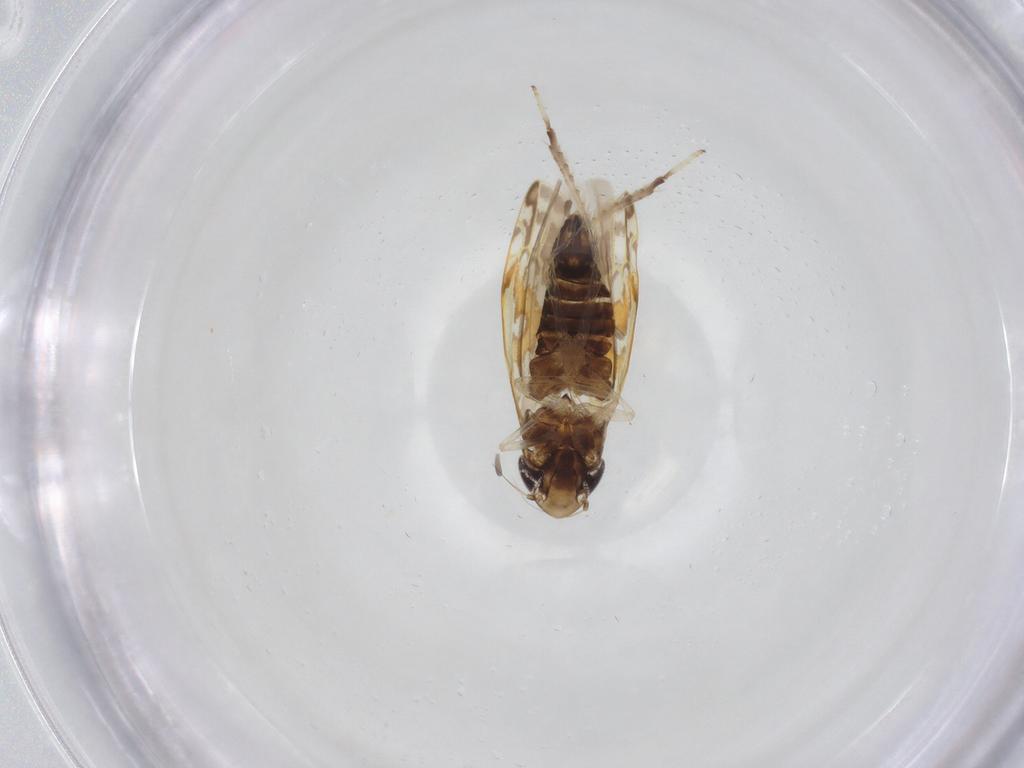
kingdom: Animalia
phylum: Arthropoda
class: Insecta
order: Hemiptera
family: Cicadellidae
